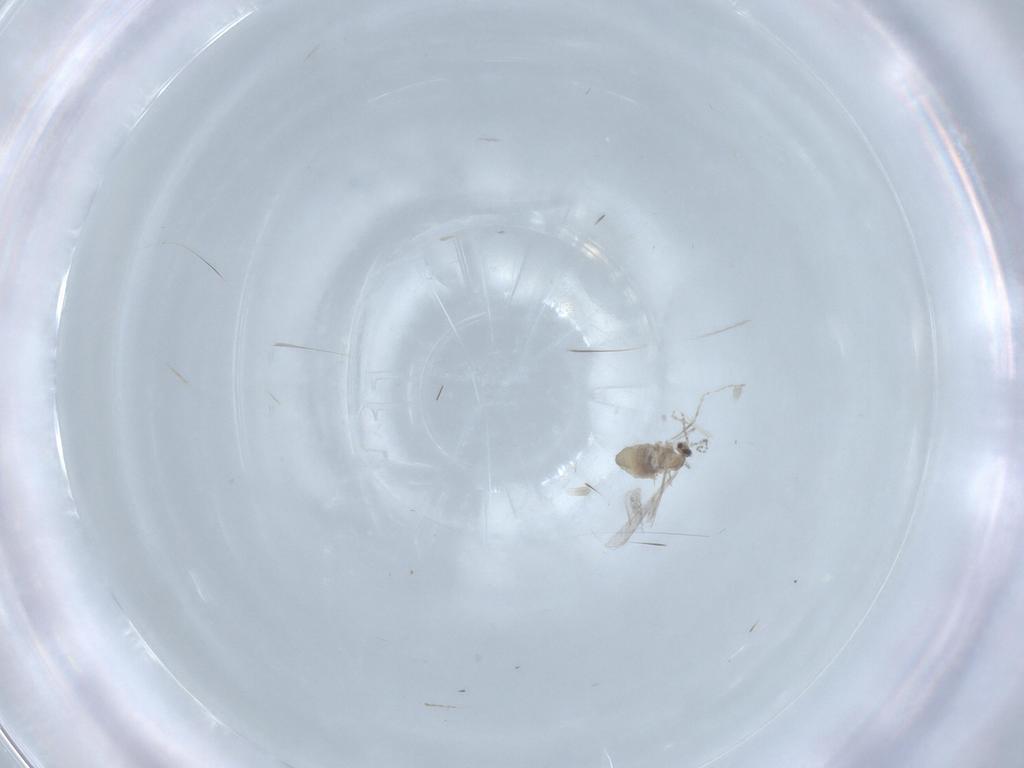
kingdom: Animalia
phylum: Arthropoda
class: Insecta
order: Diptera
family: Cecidomyiidae
